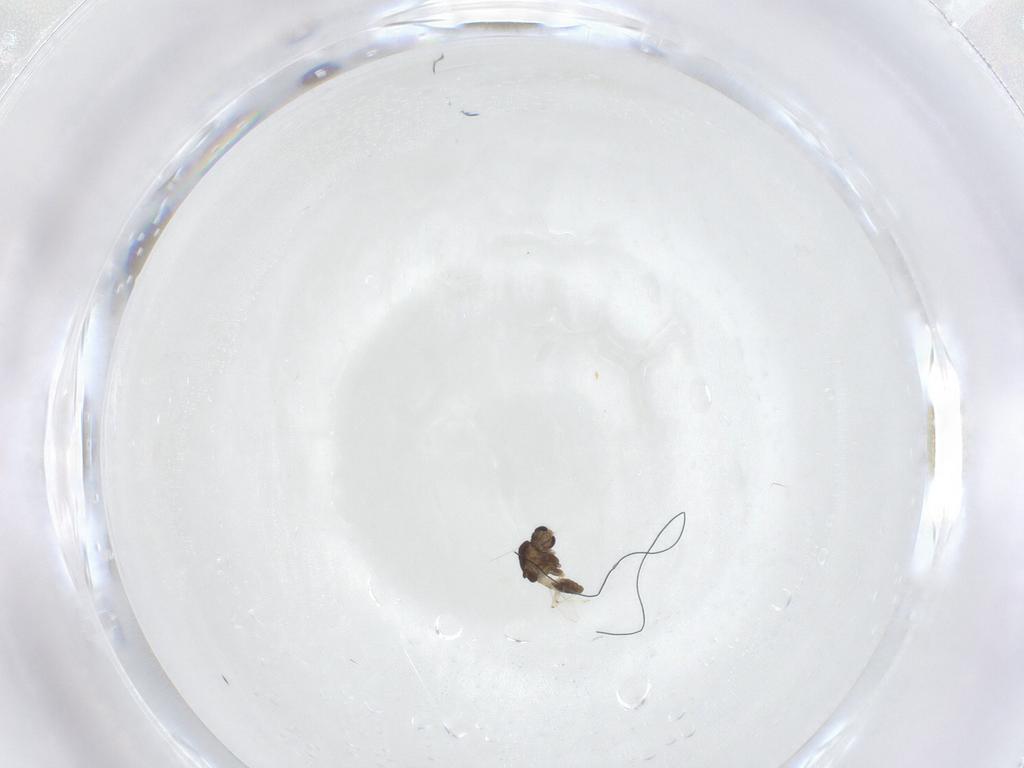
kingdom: Animalia
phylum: Arthropoda
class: Insecta
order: Diptera
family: Chironomidae
